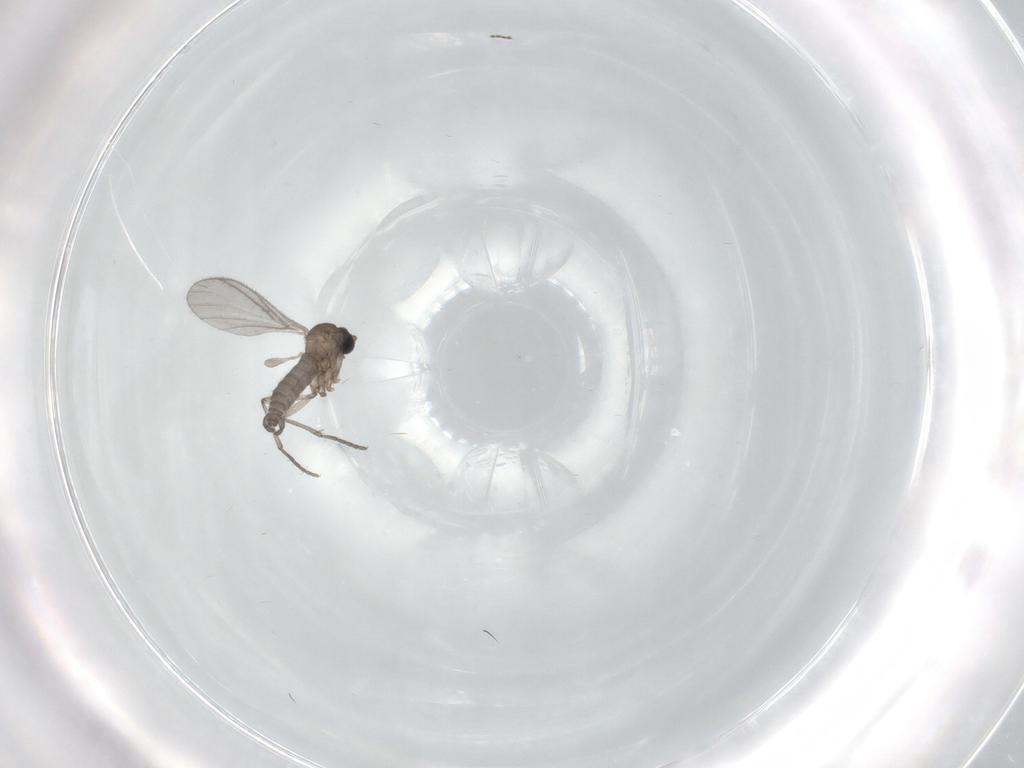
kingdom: Animalia
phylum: Arthropoda
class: Insecta
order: Diptera
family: Sciaridae
